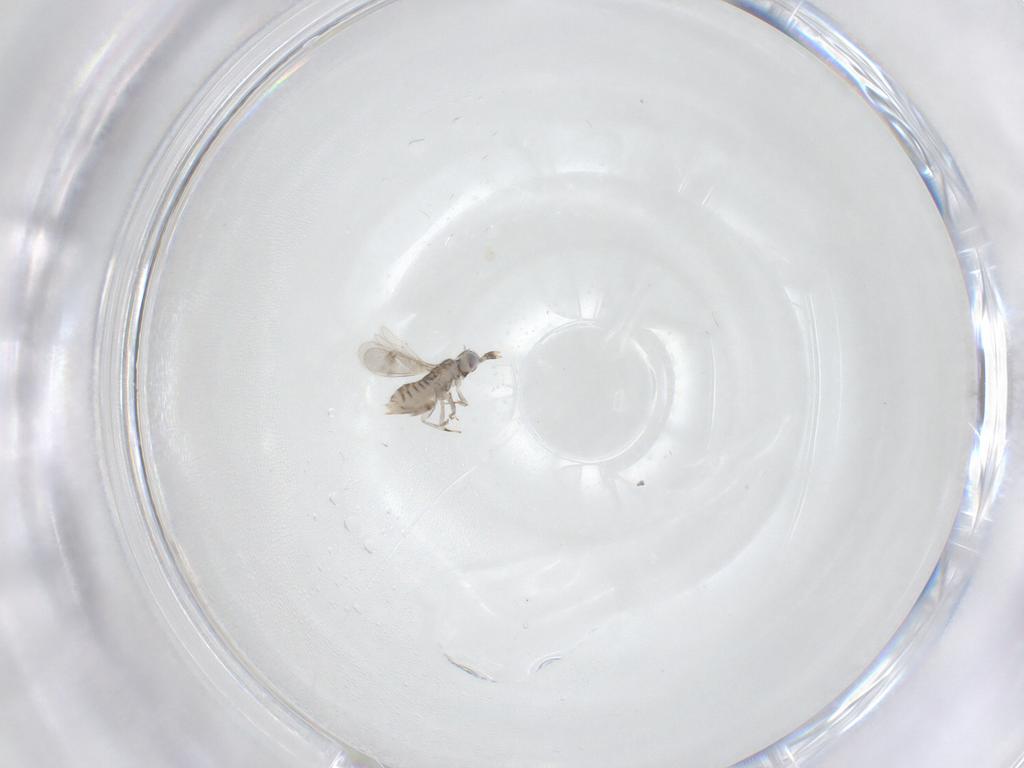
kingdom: Animalia
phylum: Arthropoda
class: Insecta
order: Hymenoptera
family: Aphelinidae
